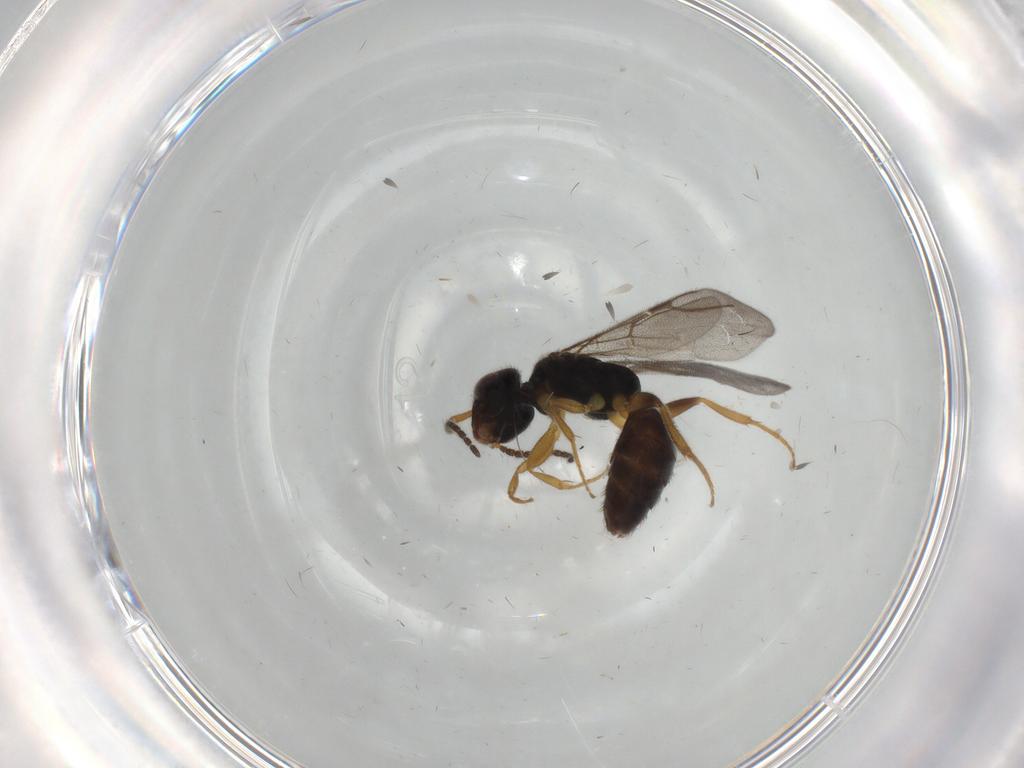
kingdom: Animalia
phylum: Arthropoda
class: Insecta
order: Hymenoptera
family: Bethylidae
